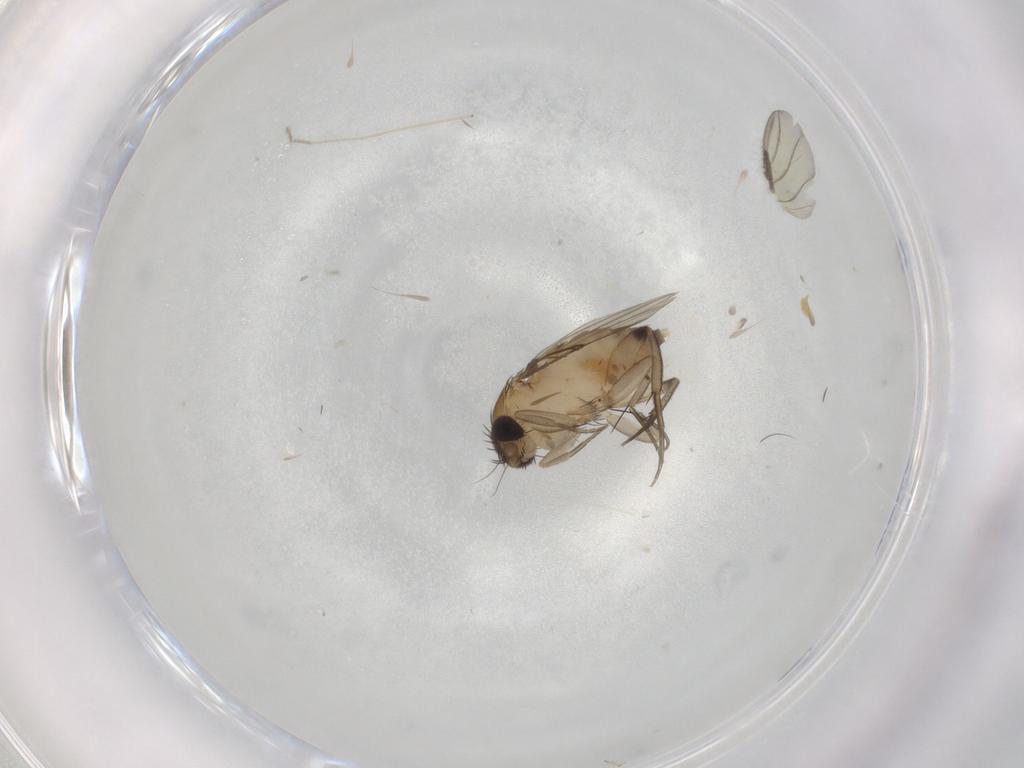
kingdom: Animalia
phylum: Arthropoda
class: Insecta
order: Diptera
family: Phoridae
